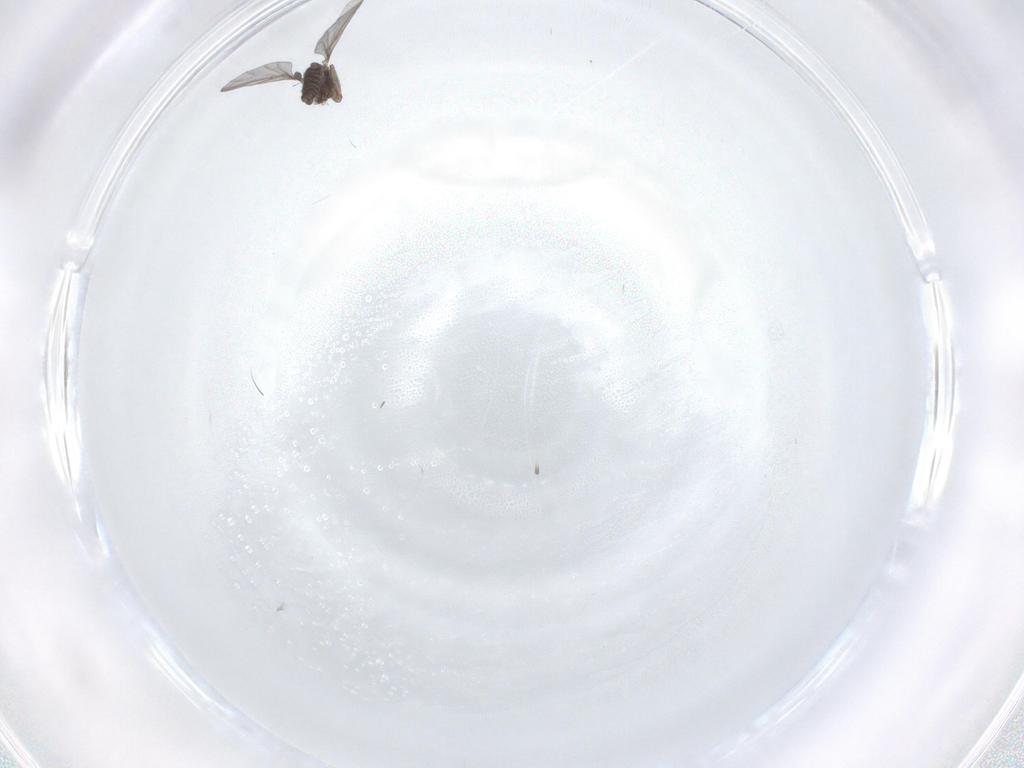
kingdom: Animalia
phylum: Arthropoda
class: Insecta
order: Diptera
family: Sciaridae
